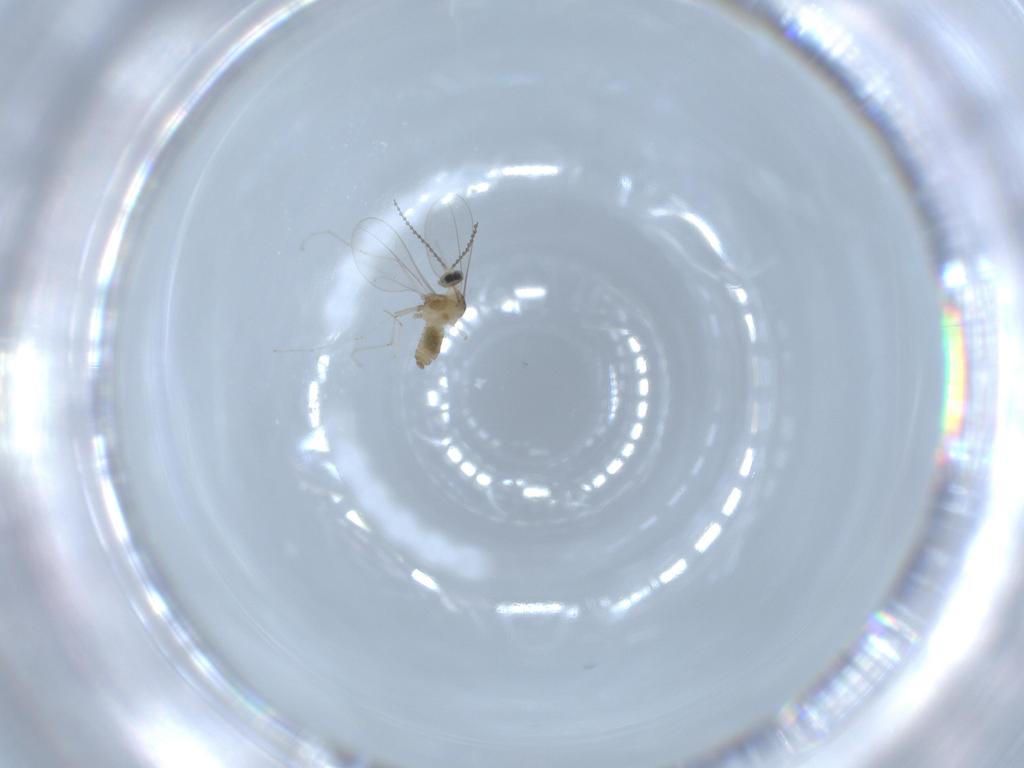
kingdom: Animalia
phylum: Arthropoda
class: Insecta
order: Diptera
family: Cecidomyiidae
